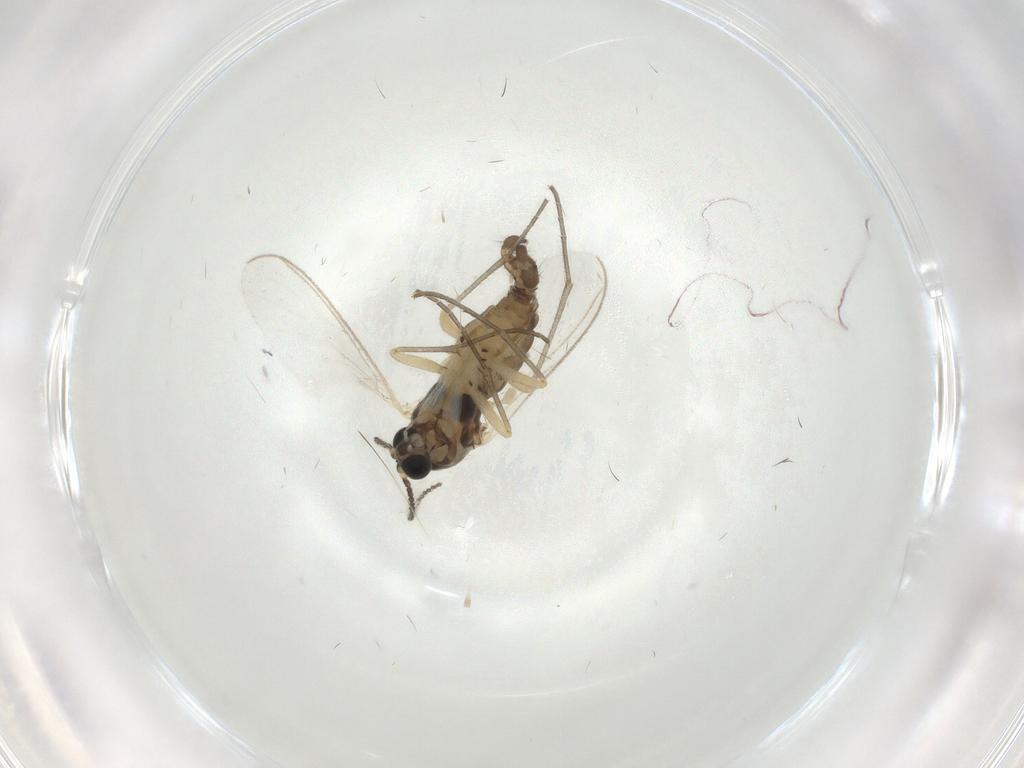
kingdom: Animalia
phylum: Arthropoda
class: Insecta
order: Diptera
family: Sciaridae
